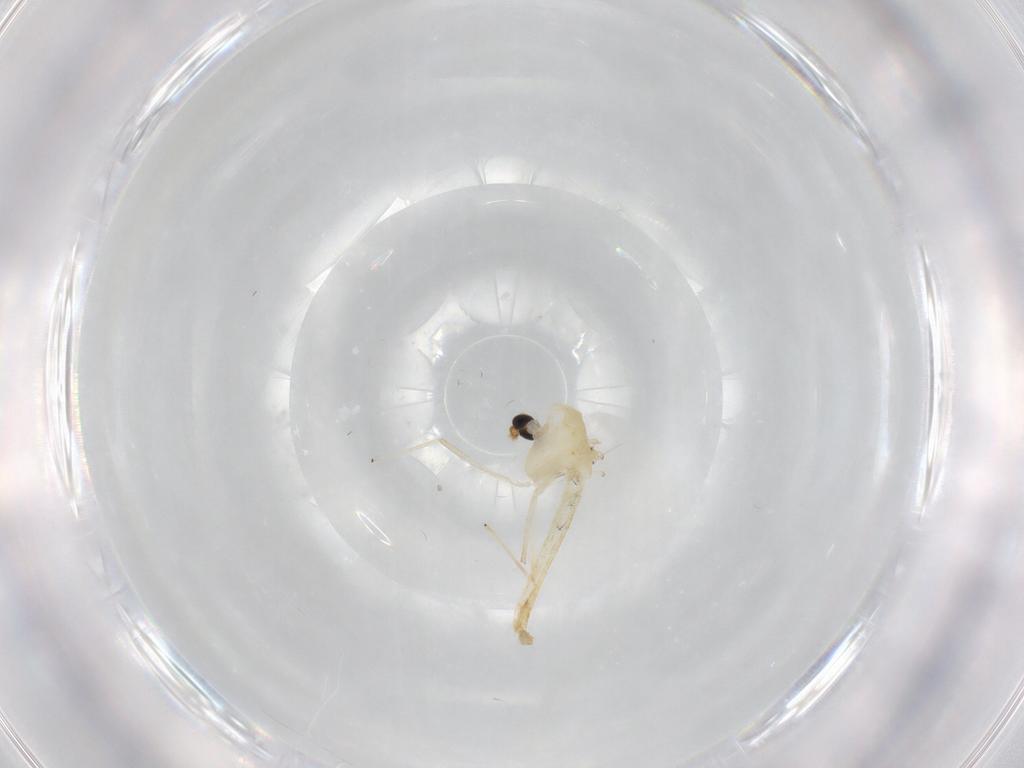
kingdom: Animalia
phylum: Arthropoda
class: Insecta
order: Diptera
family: Chironomidae
